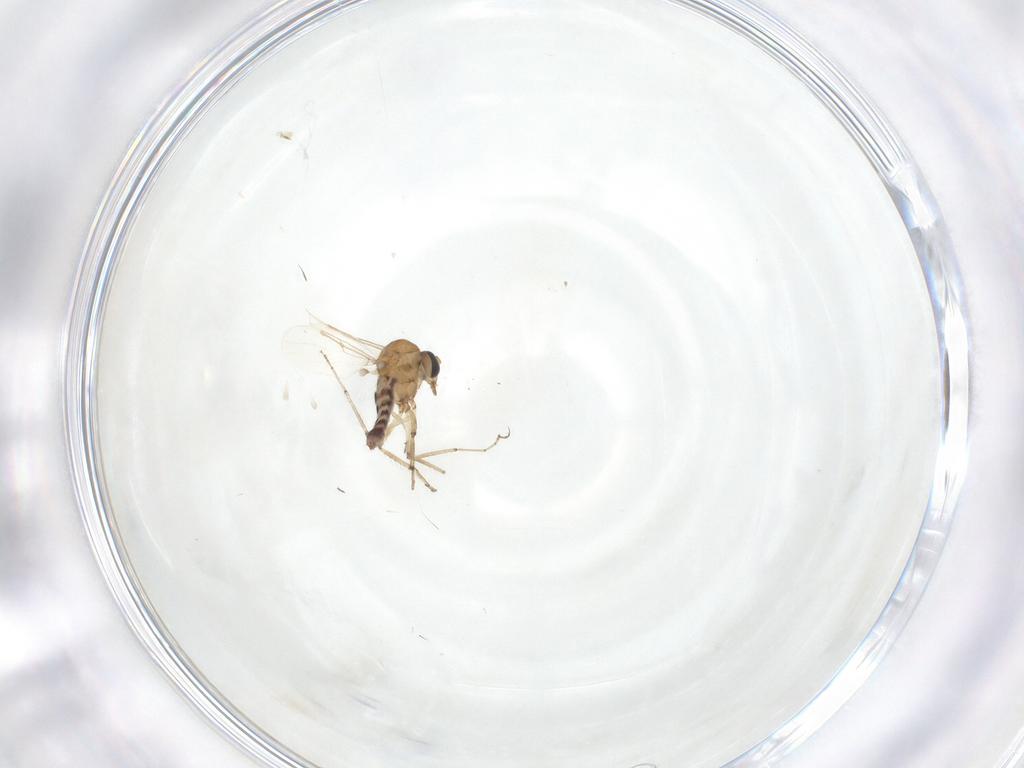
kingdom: Animalia
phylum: Arthropoda
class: Insecta
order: Diptera
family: Ceratopogonidae
